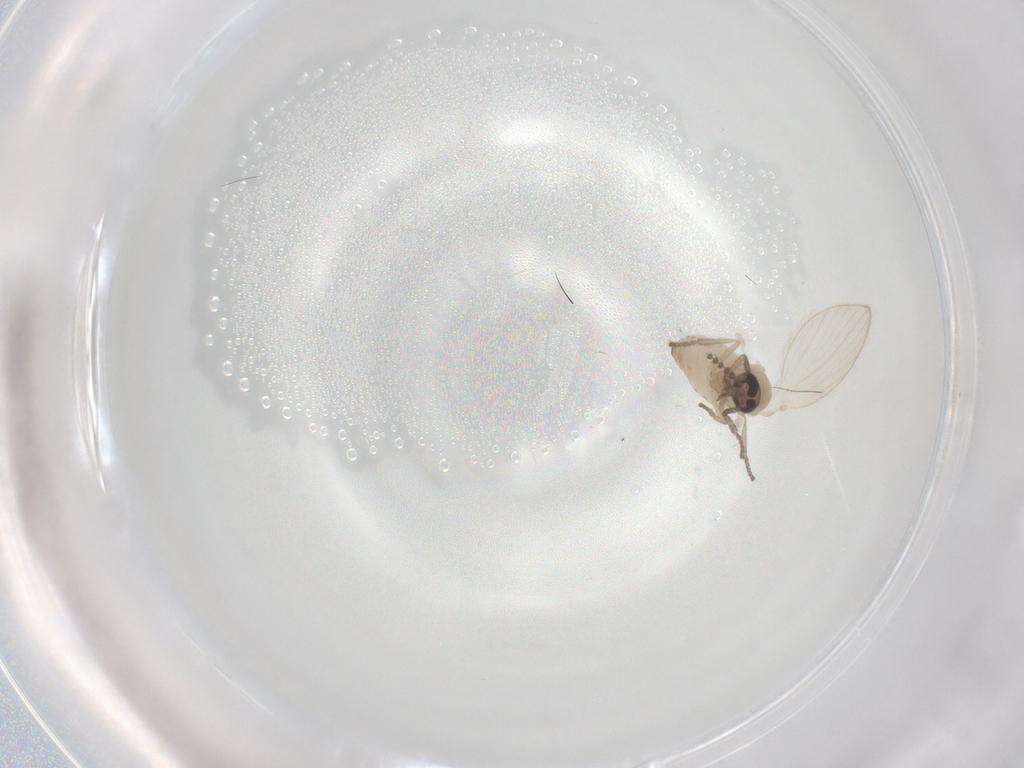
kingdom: Animalia
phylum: Arthropoda
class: Insecta
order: Diptera
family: Psychodidae
